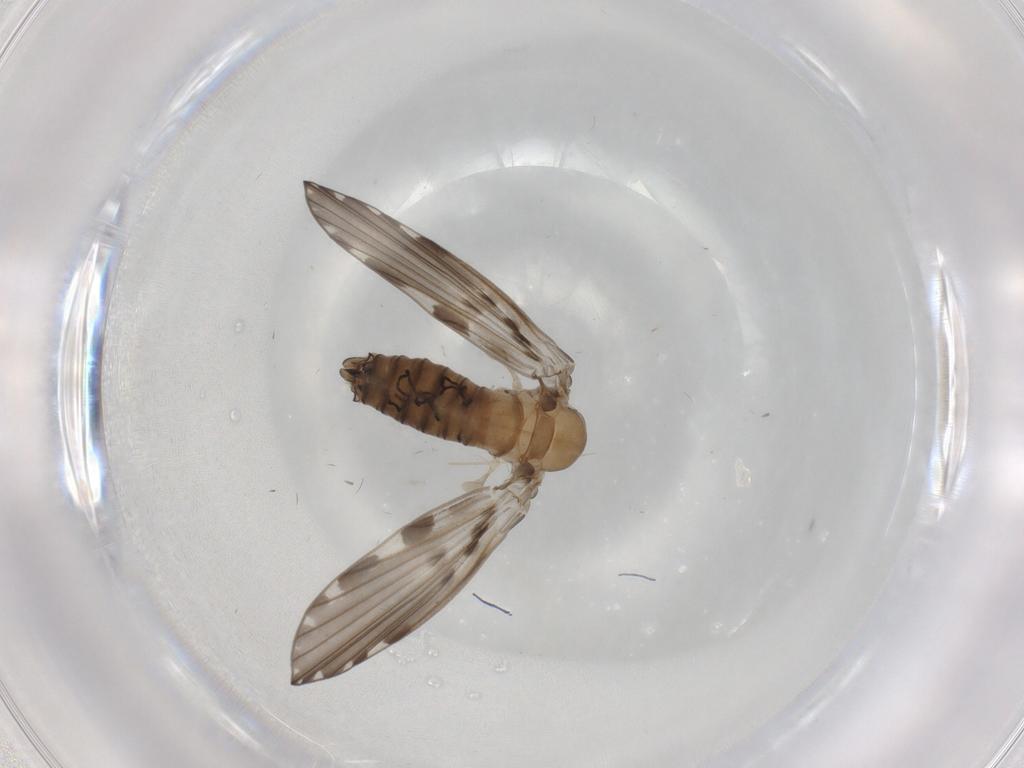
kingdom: Animalia
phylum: Arthropoda
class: Insecta
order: Diptera
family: Psychodidae
